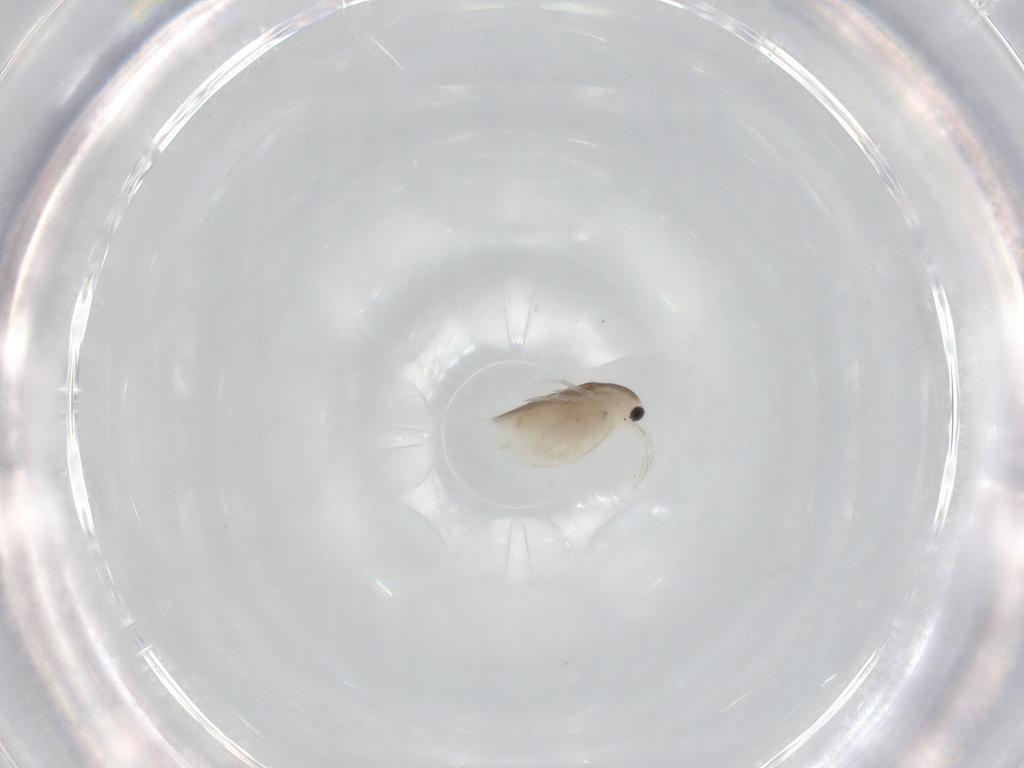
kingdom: Animalia
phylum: Arthropoda
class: Branchiopoda
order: Diplostraca
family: Daphniidae
